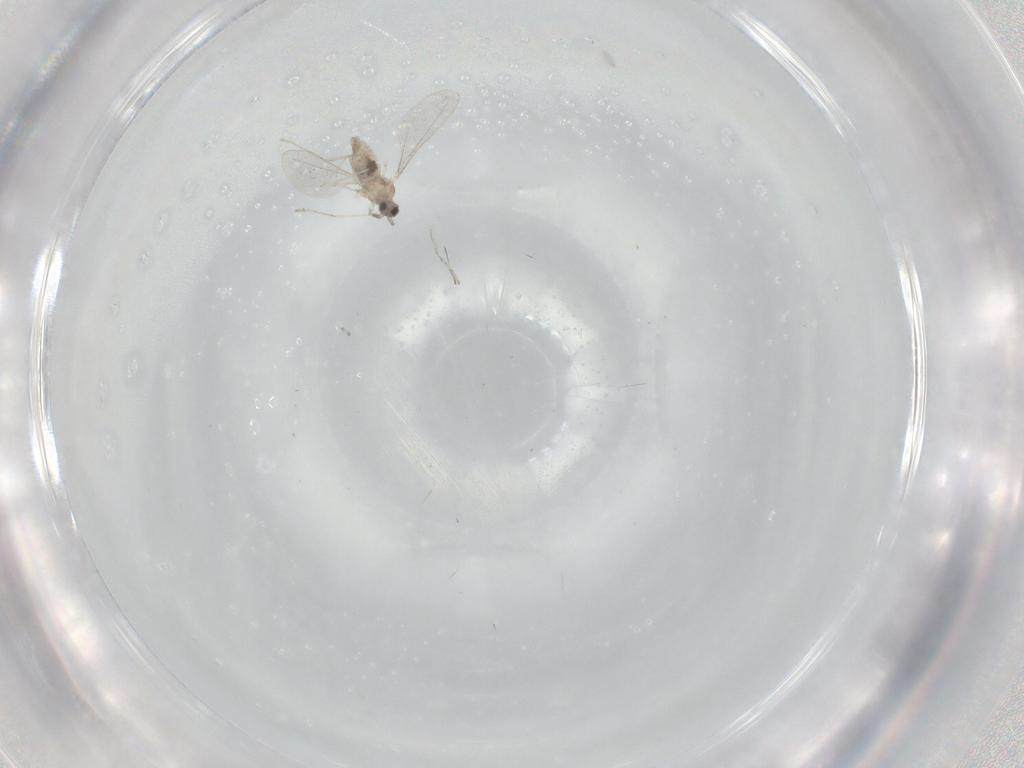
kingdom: Animalia
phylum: Arthropoda
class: Insecta
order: Diptera
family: Cecidomyiidae
